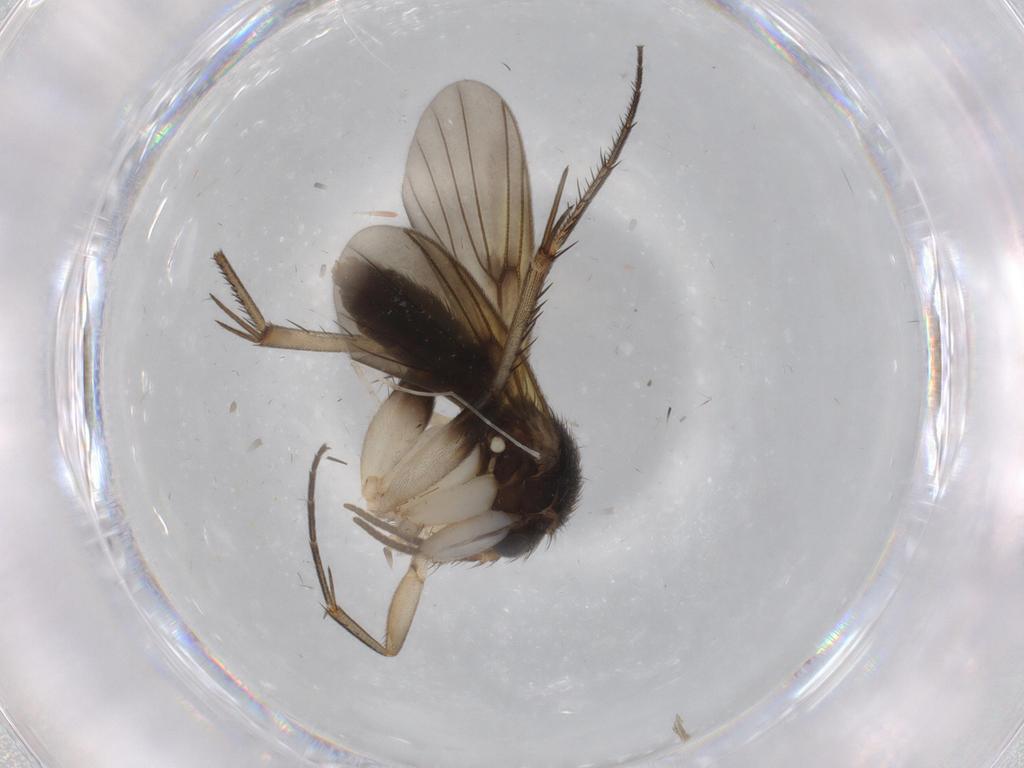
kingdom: Animalia
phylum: Arthropoda
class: Insecta
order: Diptera
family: Mycetophilidae
